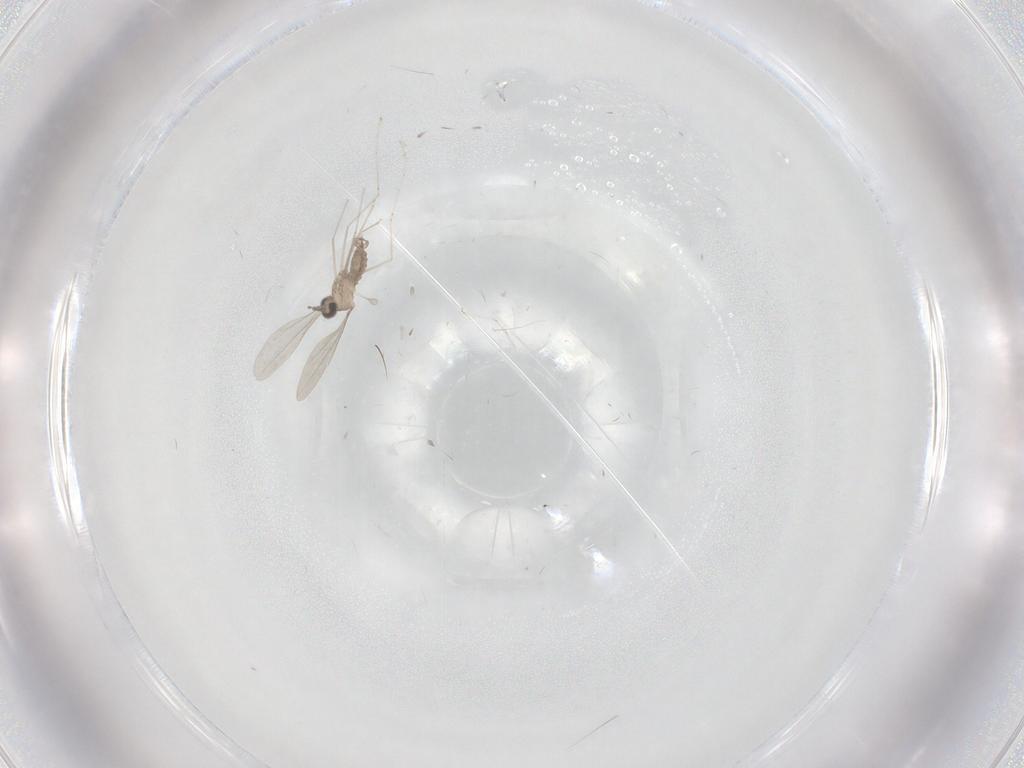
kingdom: Animalia
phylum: Arthropoda
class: Insecta
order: Diptera
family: Cecidomyiidae
